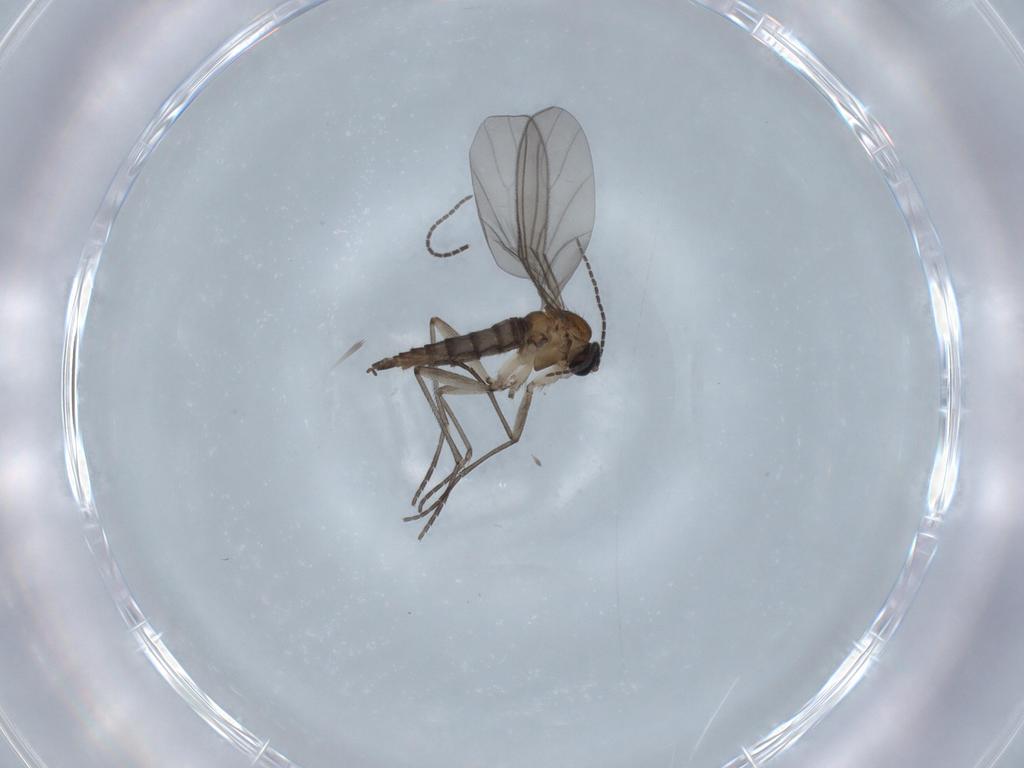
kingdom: Animalia
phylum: Arthropoda
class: Insecta
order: Diptera
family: Sciaridae
